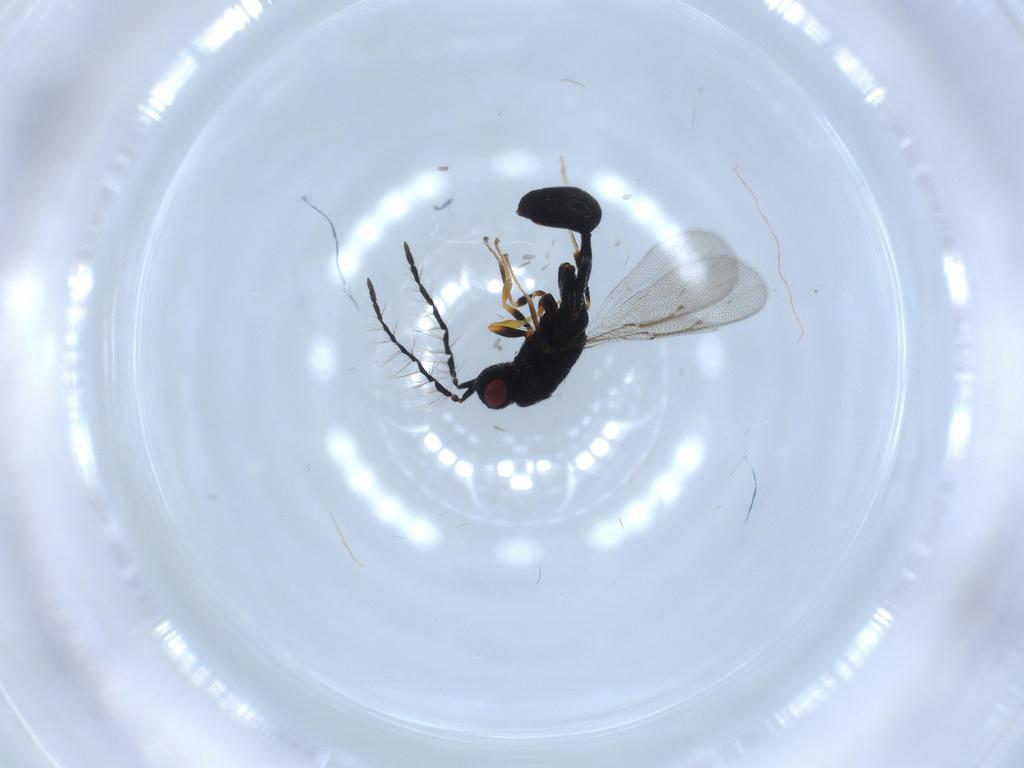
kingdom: Animalia
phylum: Arthropoda
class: Insecta
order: Hymenoptera
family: Eurytomidae
